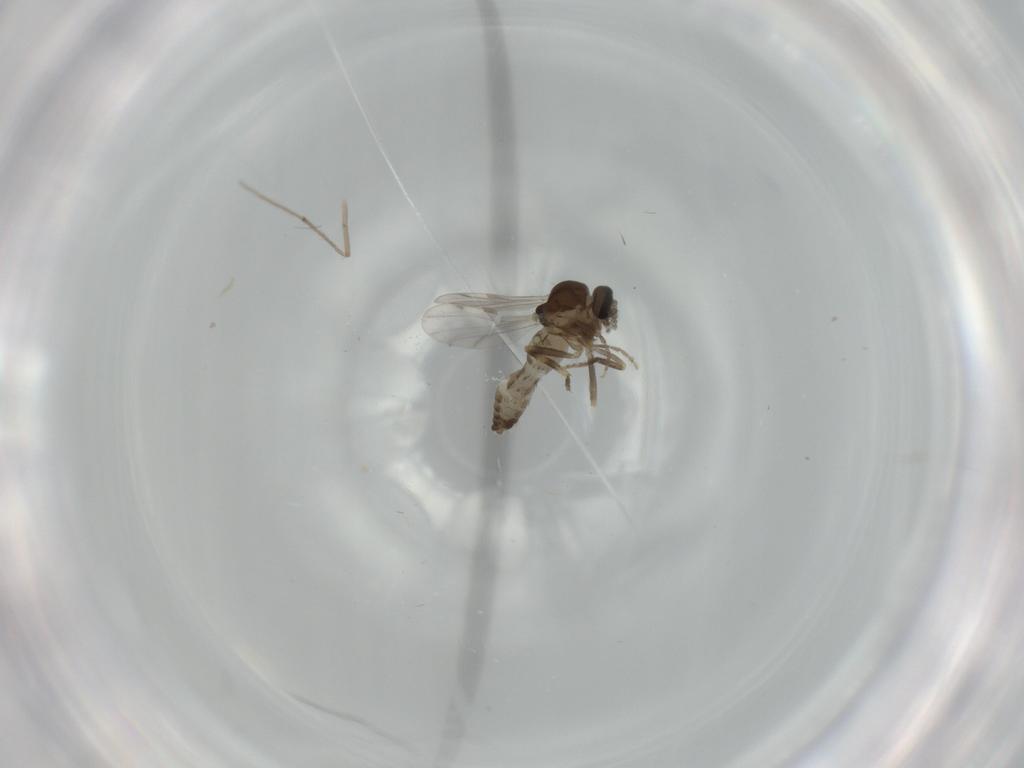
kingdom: Animalia
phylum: Arthropoda
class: Insecta
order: Diptera
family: Ceratopogonidae
